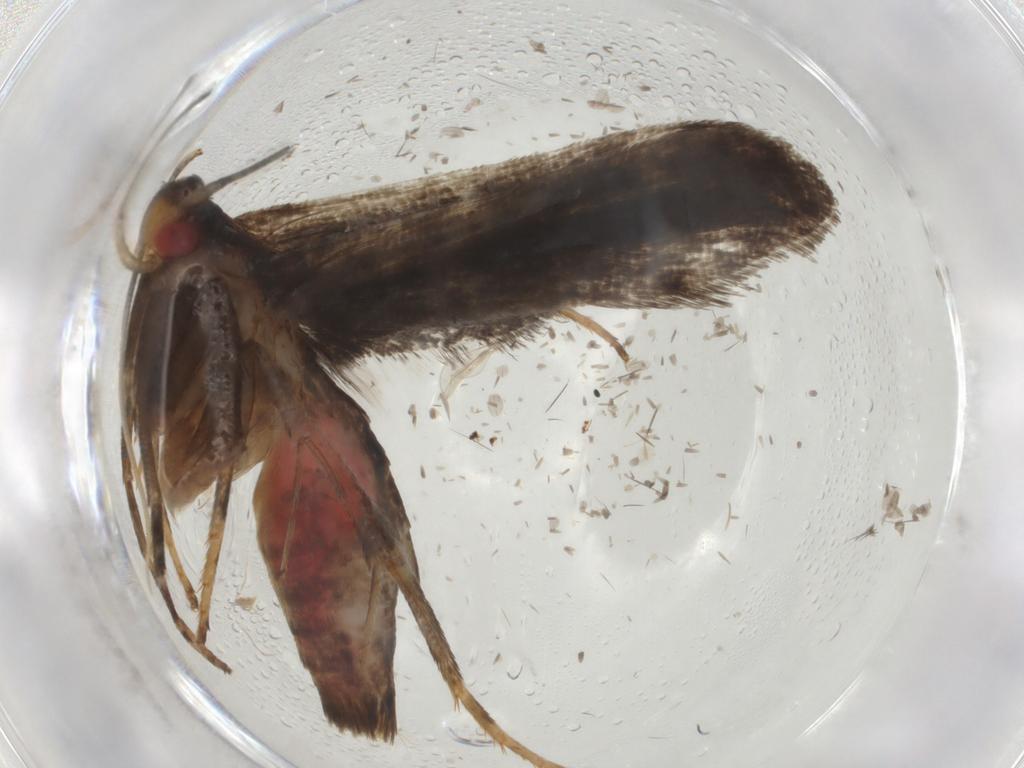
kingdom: Animalia
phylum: Arthropoda
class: Insecta
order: Lepidoptera
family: Gelechiidae
